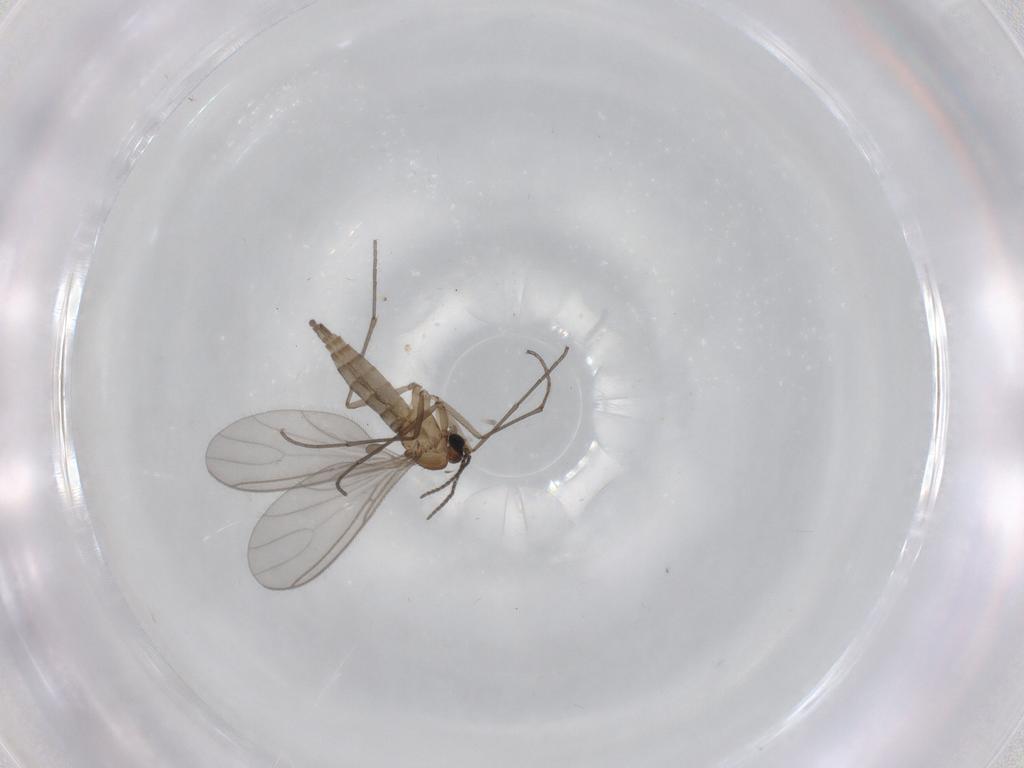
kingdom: Animalia
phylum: Arthropoda
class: Insecta
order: Diptera
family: Sciaridae
